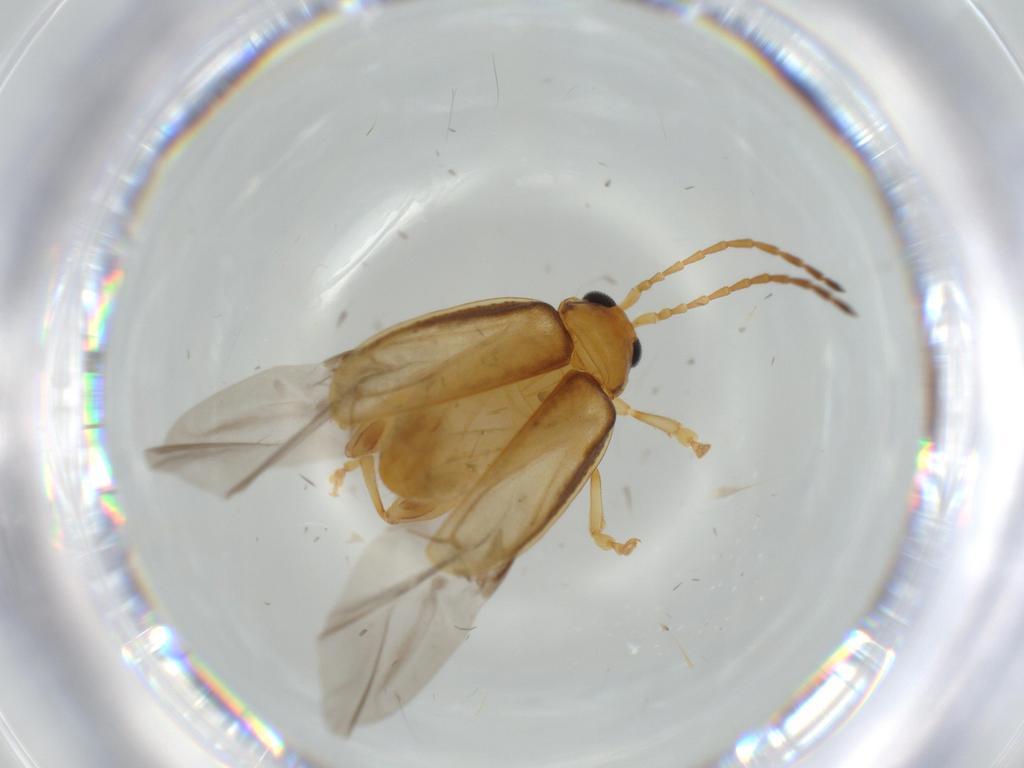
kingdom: Animalia
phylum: Arthropoda
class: Insecta
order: Coleoptera
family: Chrysomelidae
